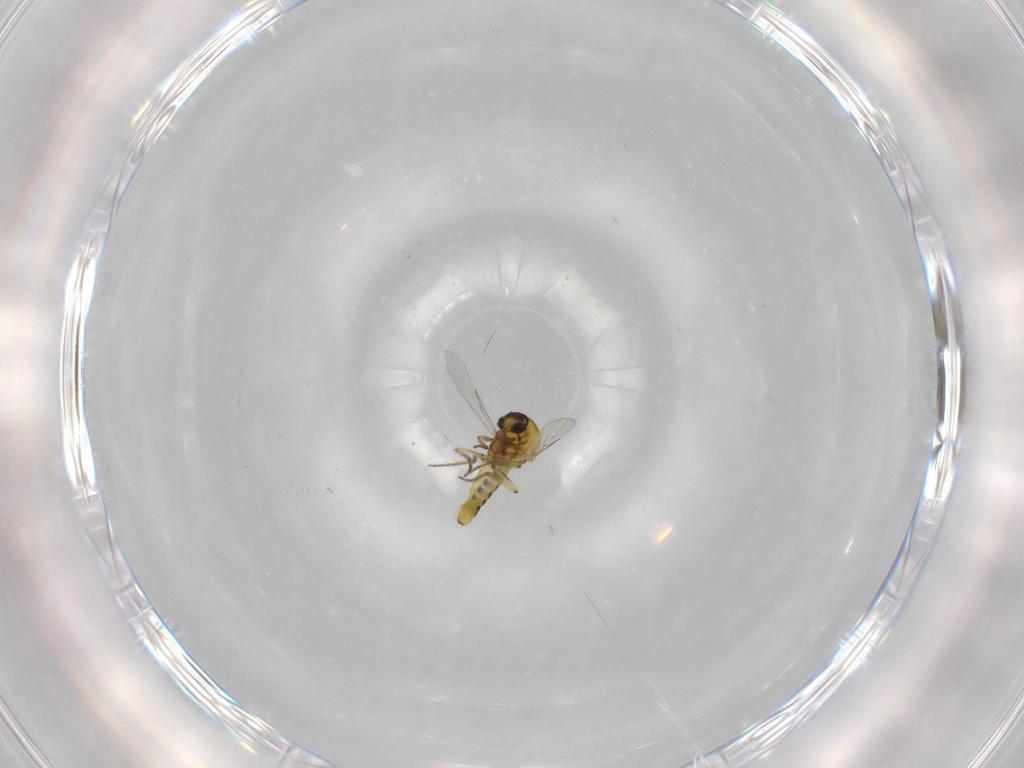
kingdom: Animalia
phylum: Arthropoda
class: Insecta
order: Diptera
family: Ceratopogonidae
